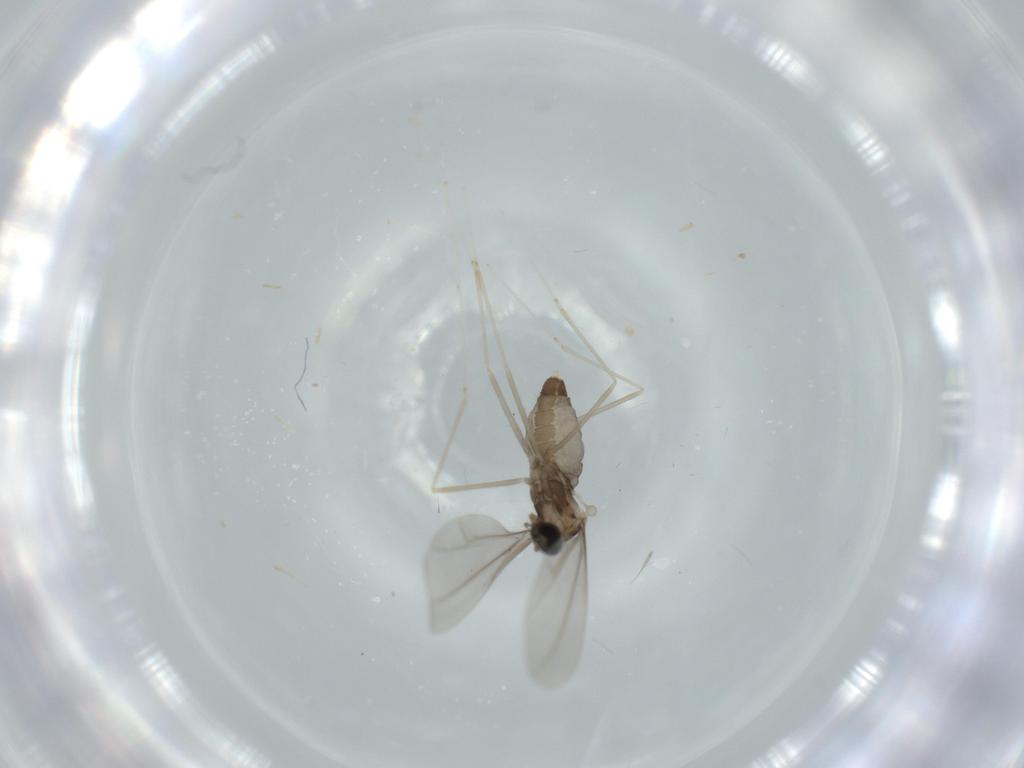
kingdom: Animalia
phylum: Arthropoda
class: Insecta
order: Diptera
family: Cecidomyiidae
